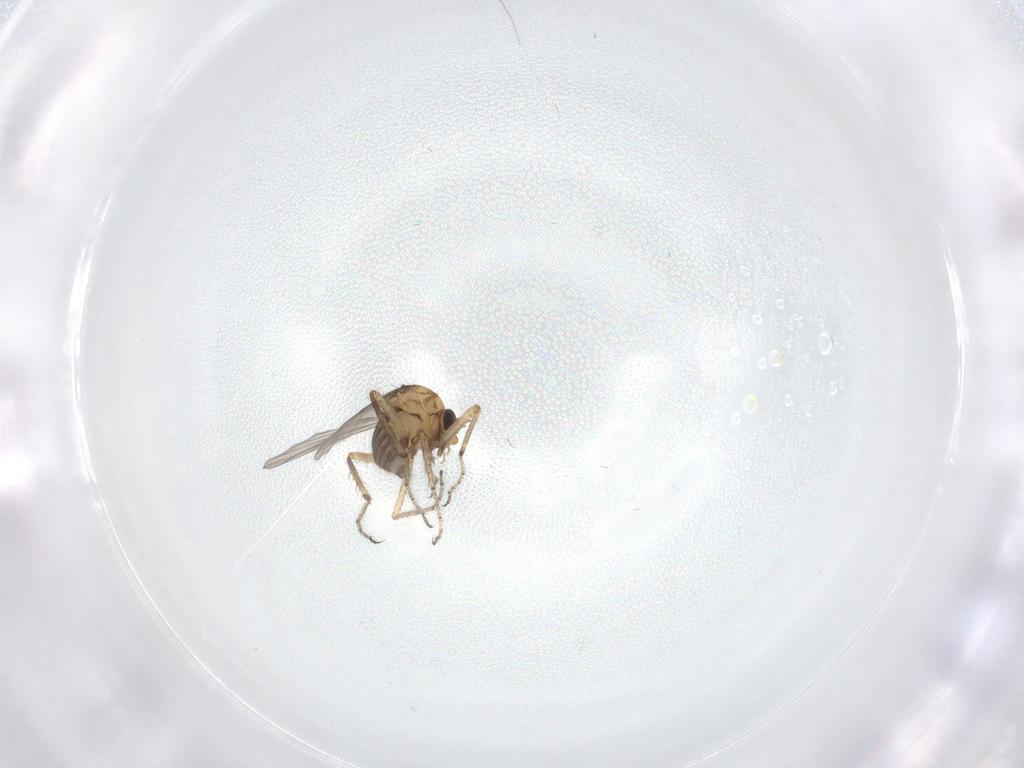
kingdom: Animalia
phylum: Arthropoda
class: Insecta
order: Diptera
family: Ceratopogonidae
